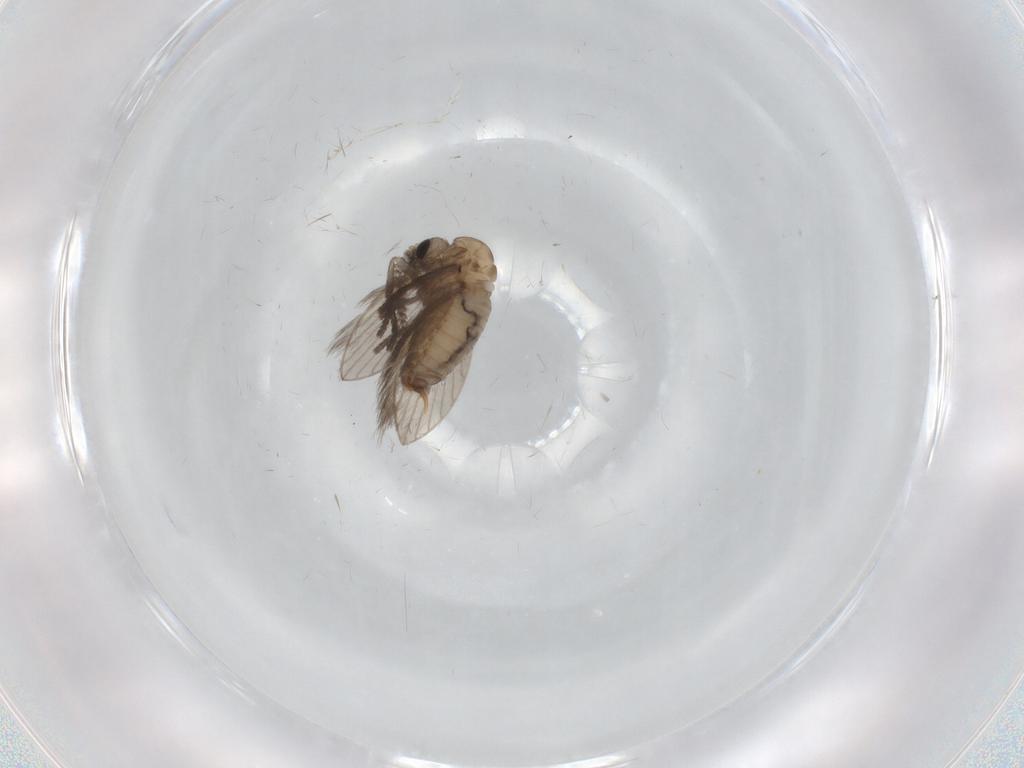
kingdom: Animalia
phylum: Arthropoda
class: Insecta
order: Diptera
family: Psychodidae
